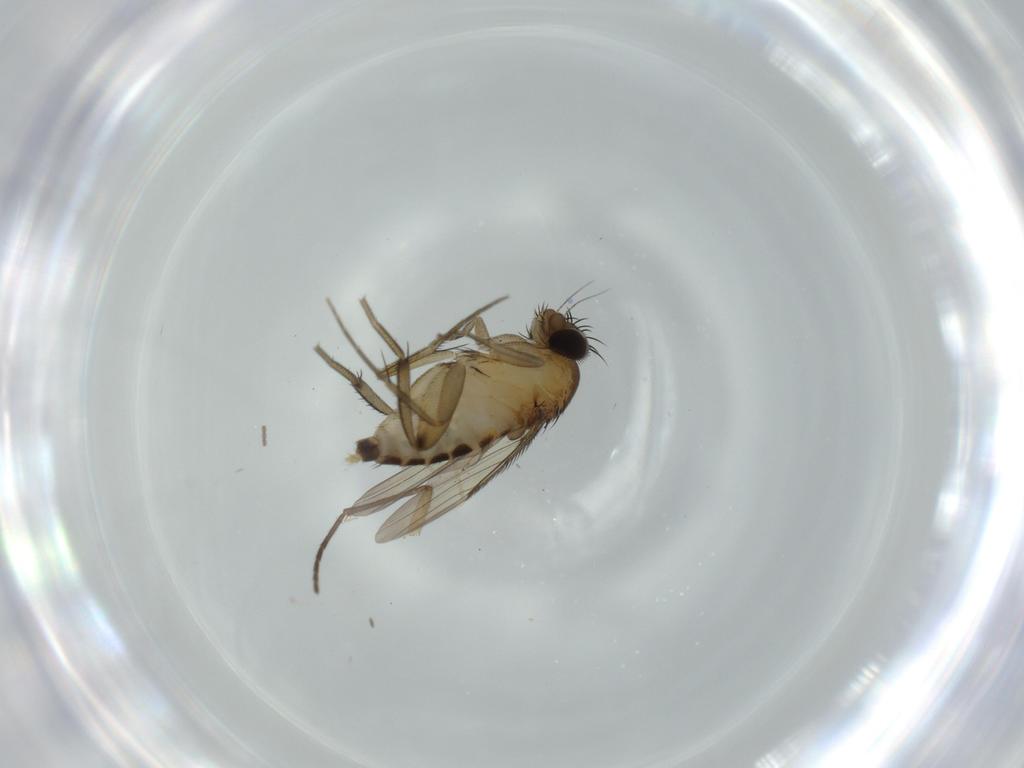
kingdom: Animalia
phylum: Arthropoda
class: Insecta
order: Diptera
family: Phoridae
